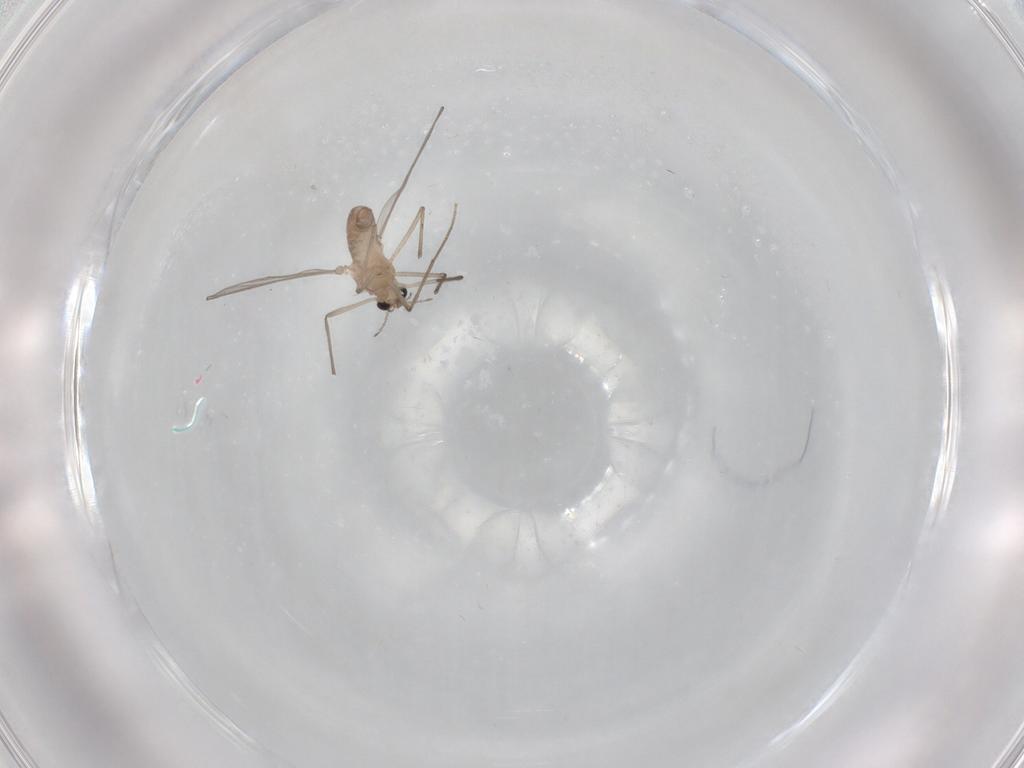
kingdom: Animalia
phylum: Arthropoda
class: Insecta
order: Diptera
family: Chironomidae
